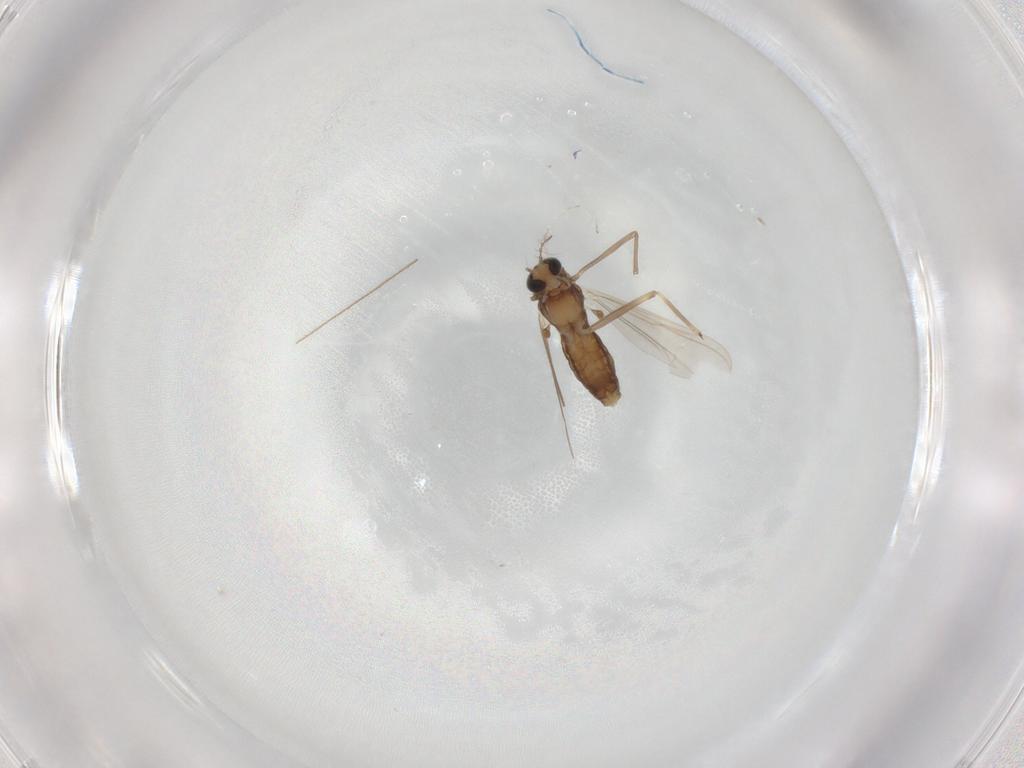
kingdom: Animalia
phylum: Arthropoda
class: Insecta
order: Diptera
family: Chironomidae
